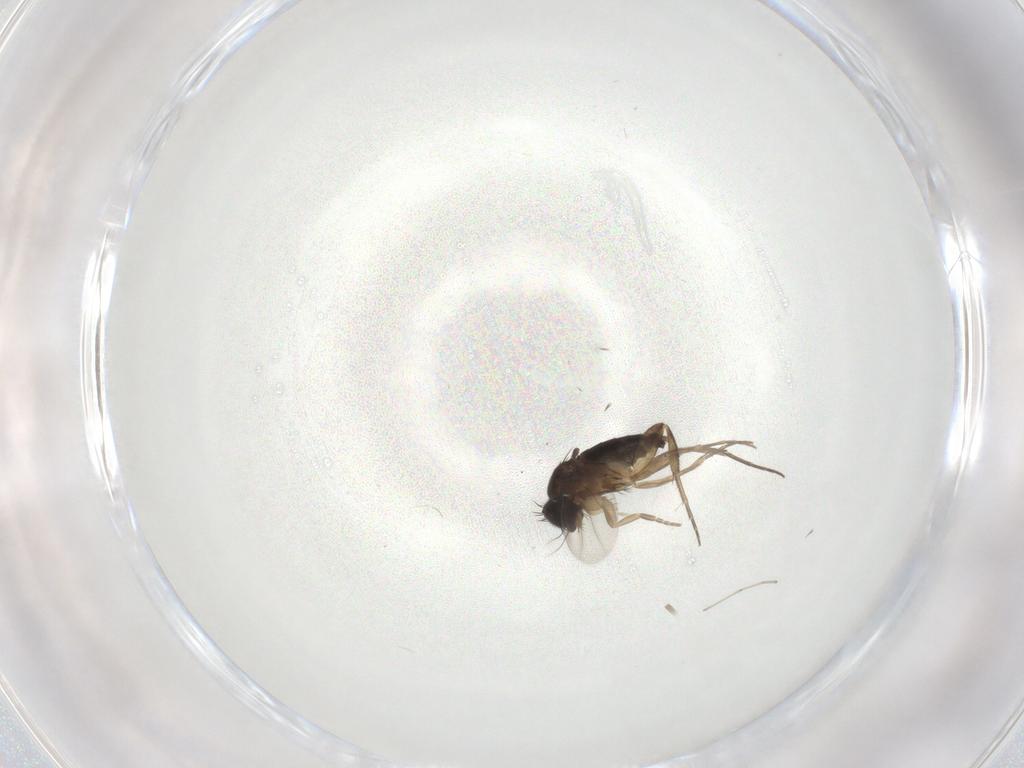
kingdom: Animalia
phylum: Arthropoda
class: Insecta
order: Diptera
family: Phoridae
